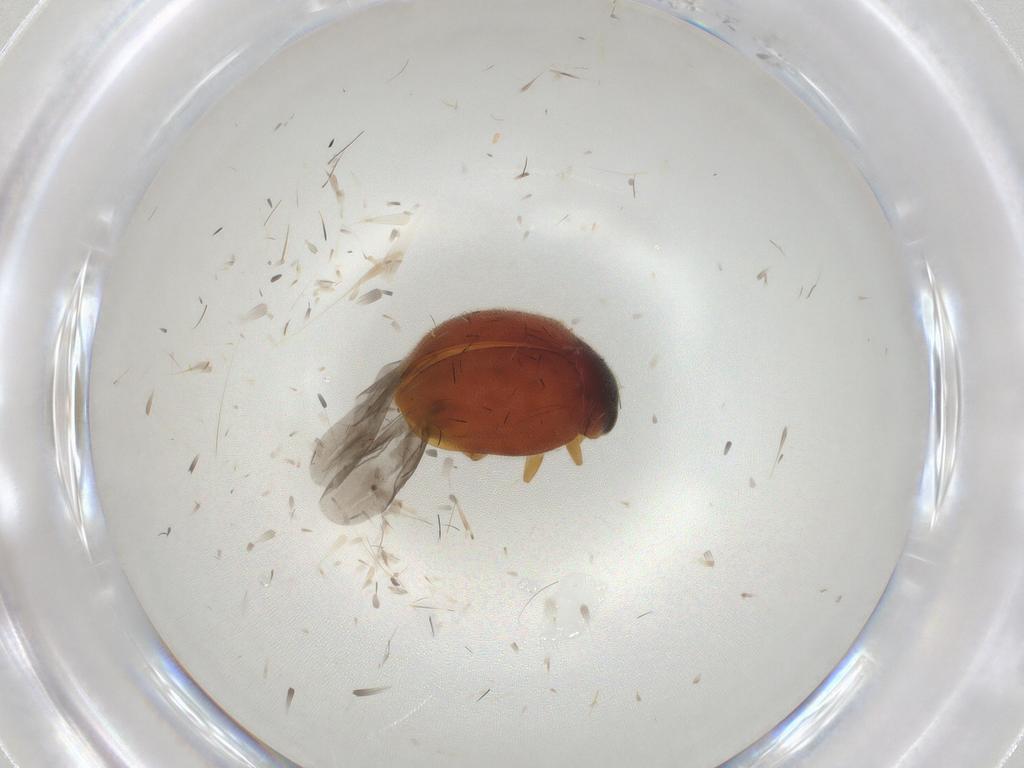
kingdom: Animalia
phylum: Arthropoda
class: Insecta
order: Coleoptera
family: Coccinellidae
